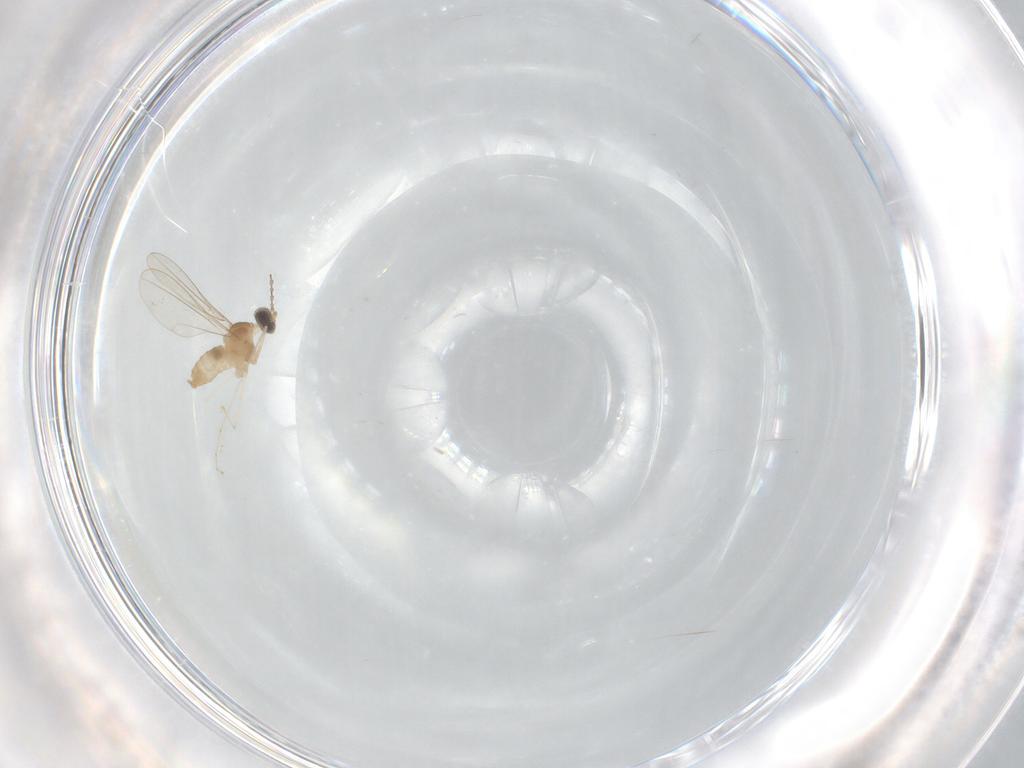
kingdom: Animalia
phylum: Arthropoda
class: Insecta
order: Diptera
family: Cecidomyiidae
